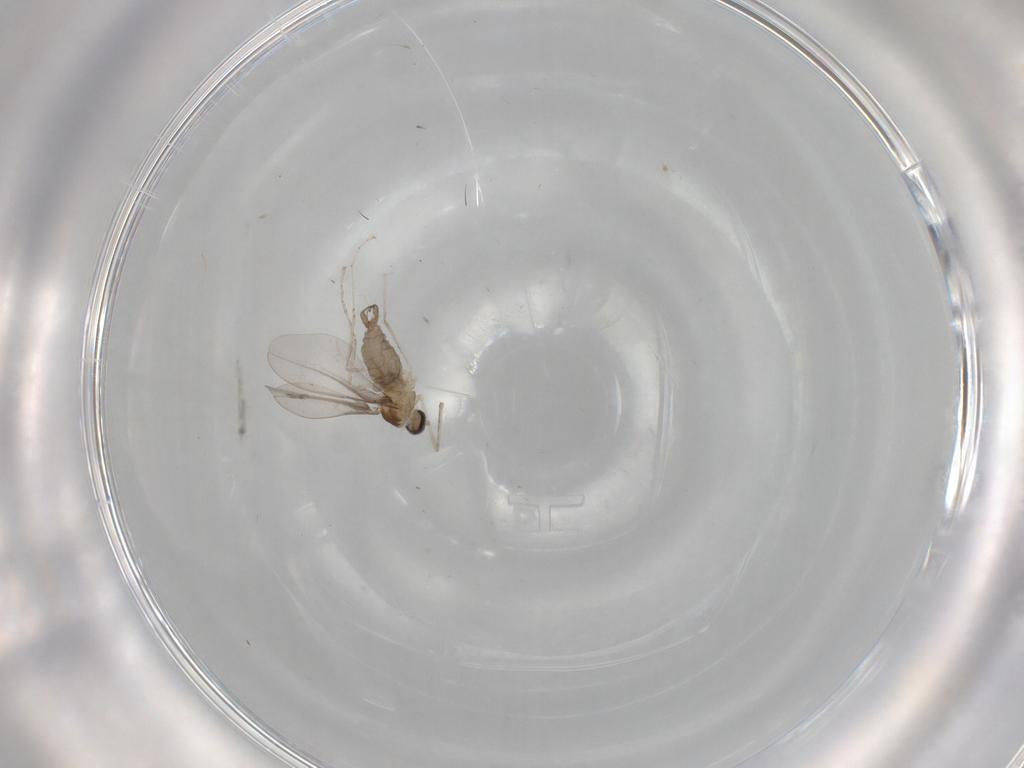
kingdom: Animalia
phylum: Arthropoda
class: Insecta
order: Diptera
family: Cecidomyiidae
